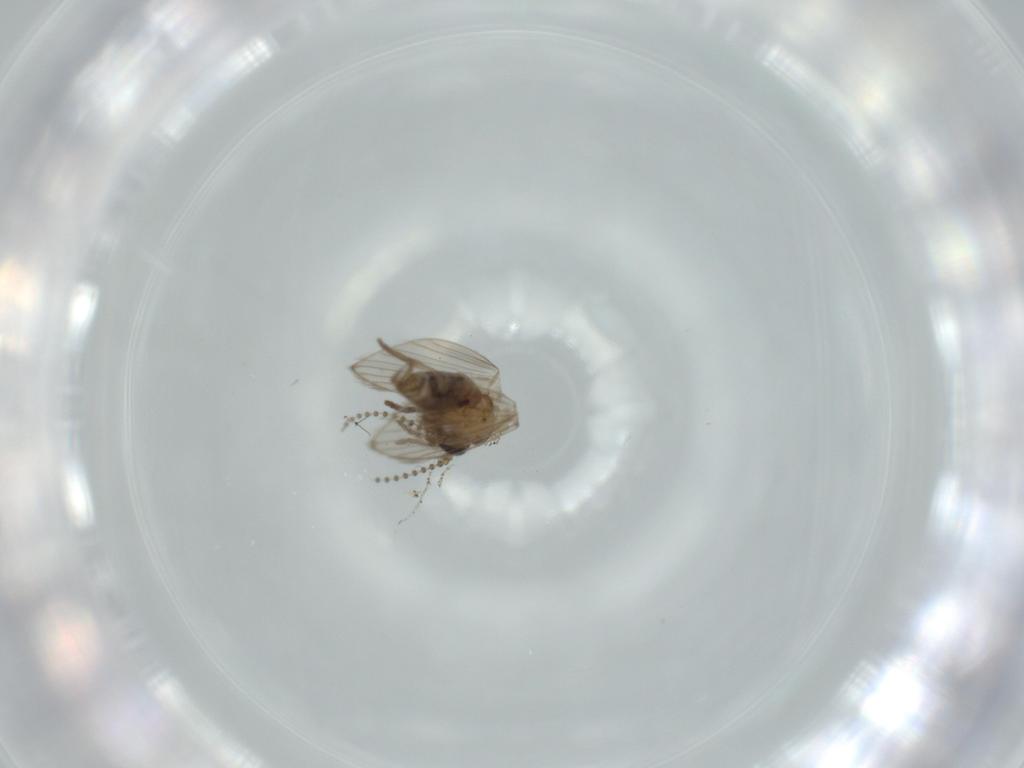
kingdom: Animalia
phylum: Arthropoda
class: Insecta
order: Diptera
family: Psychodidae
